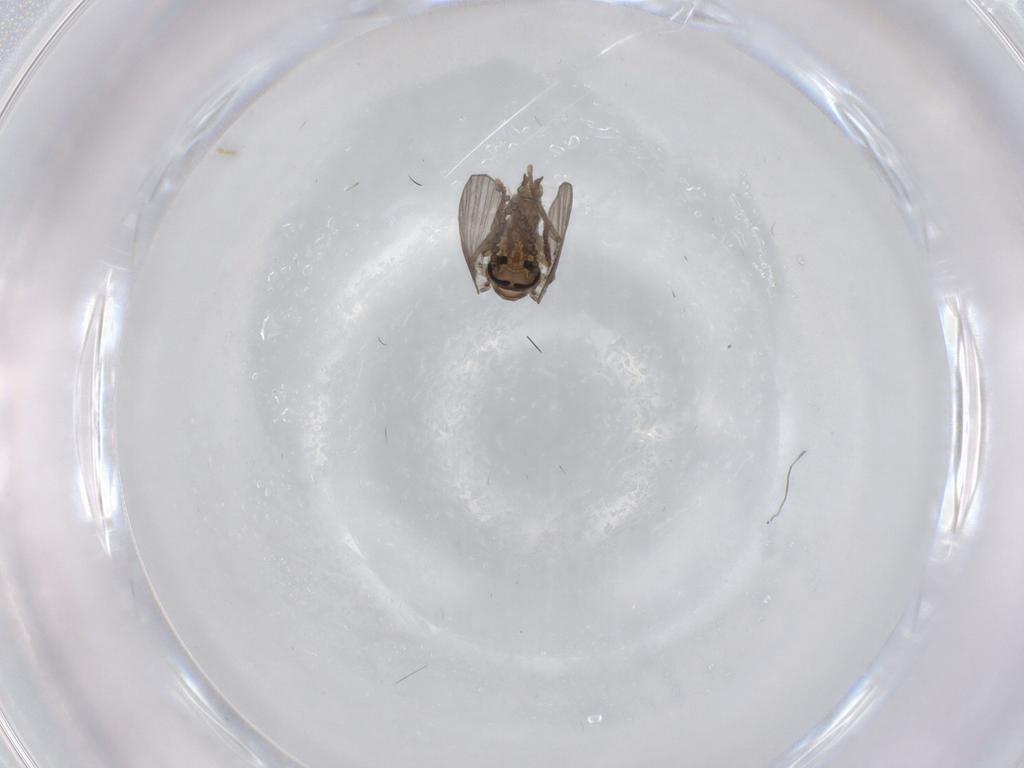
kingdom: Animalia
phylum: Arthropoda
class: Insecta
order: Diptera
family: Psychodidae
